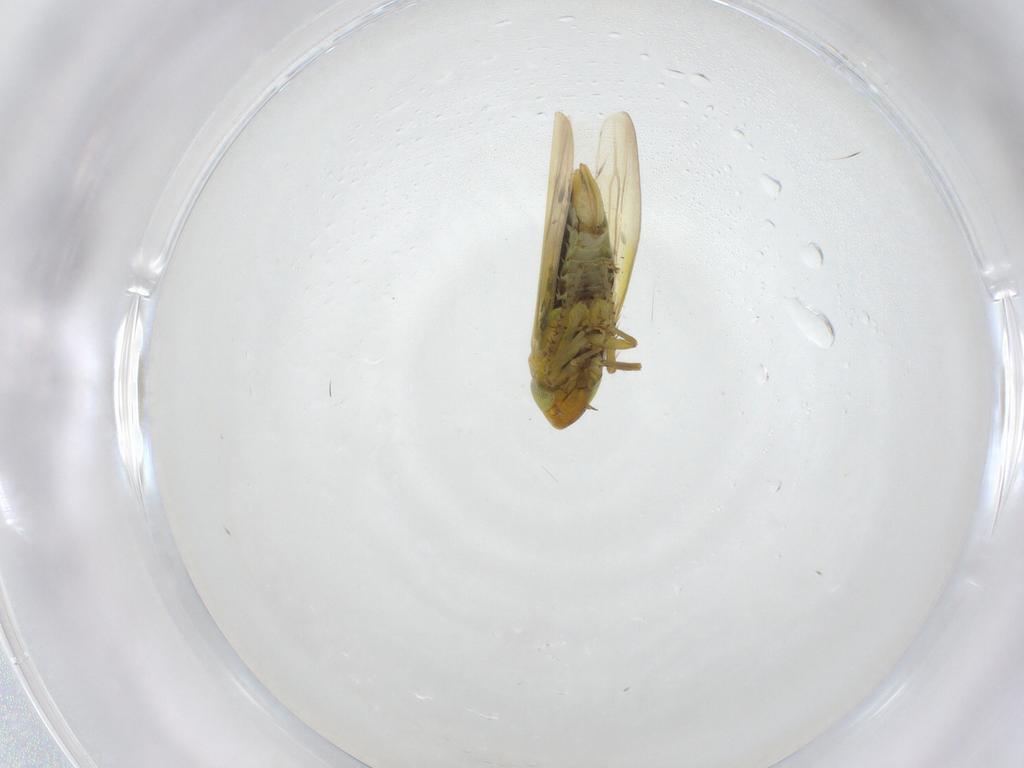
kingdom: Animalia
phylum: Arthropoda
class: Insecta
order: Hemiptera
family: Cicadellidae
